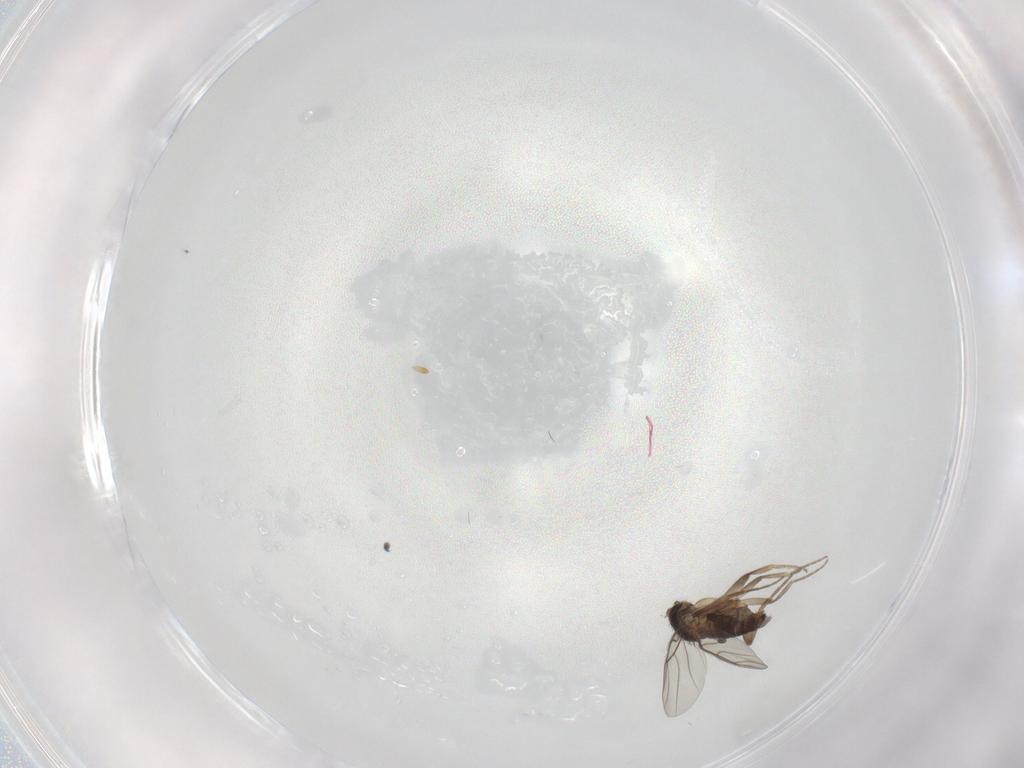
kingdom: Animalia
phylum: Arthropoda
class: Insecta
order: Diptera
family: Phoridae
